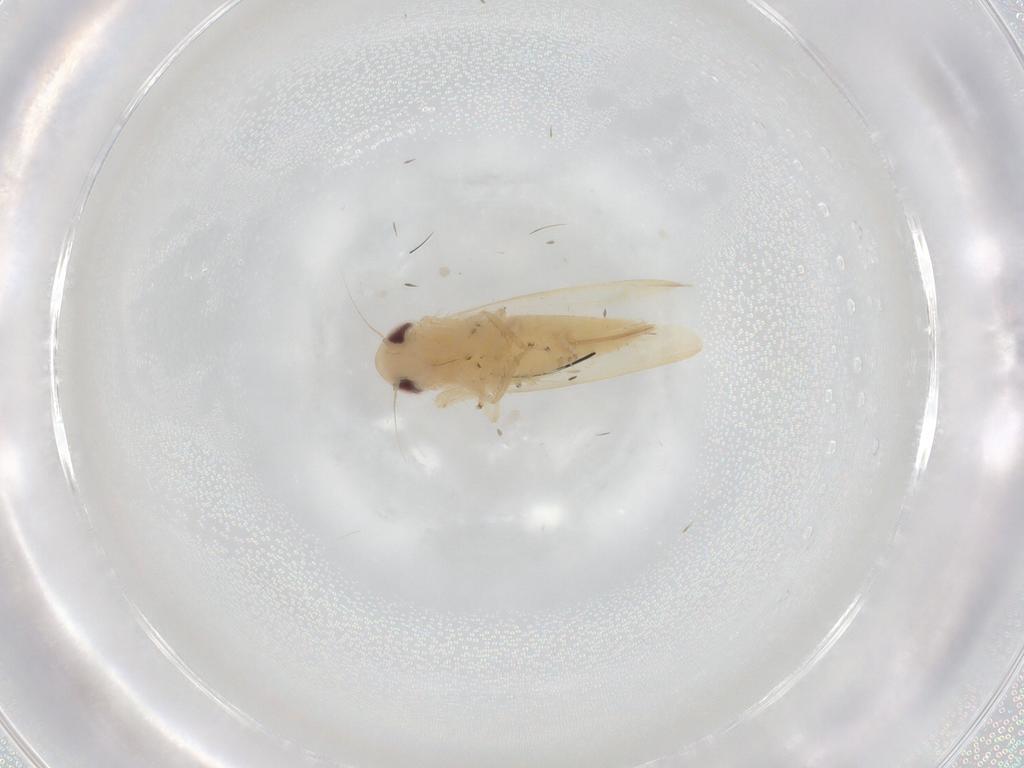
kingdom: Animalia
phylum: Arthropoda
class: Insecta
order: Hemiptera
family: Cicadellidae
